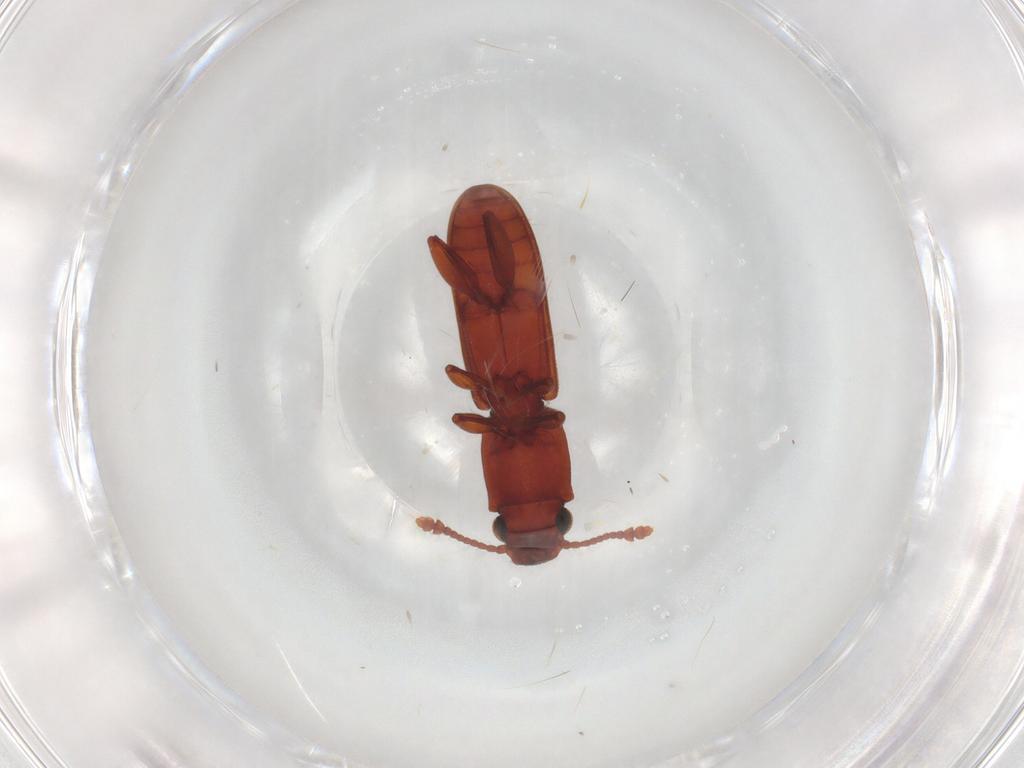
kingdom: Animalia
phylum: Arthropoda
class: Insecta
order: Coleoptera
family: Silvanidae
